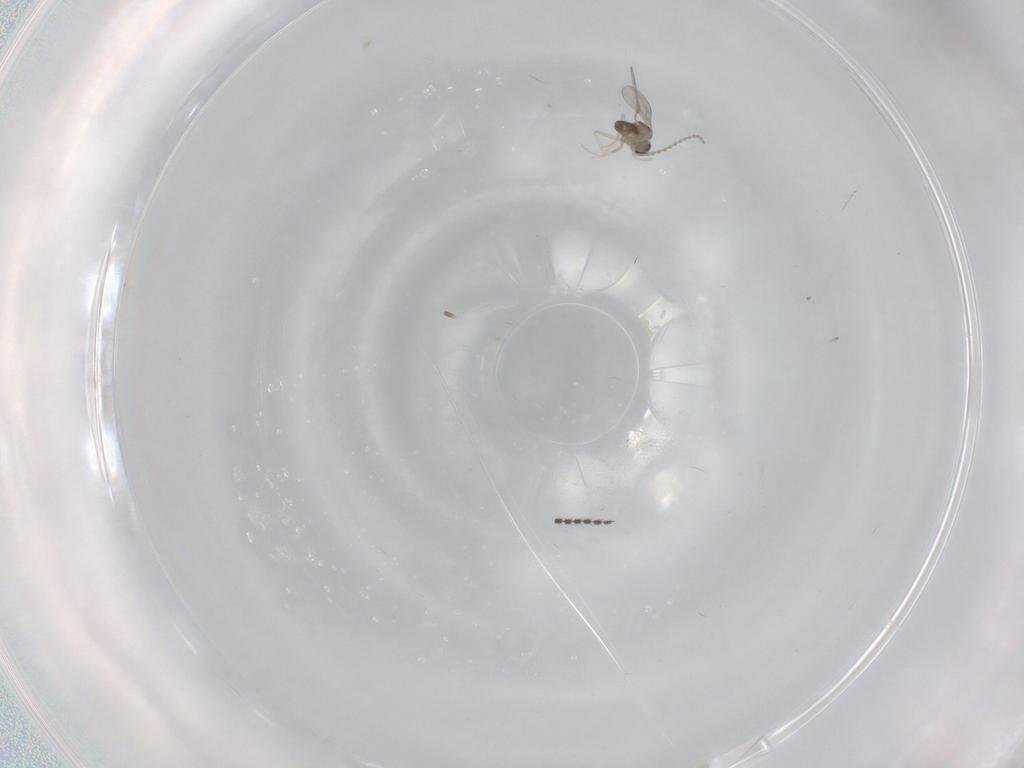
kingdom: Animalia
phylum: Arthropoda
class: Insecta
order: Diptera
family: Cecidomyiidae
